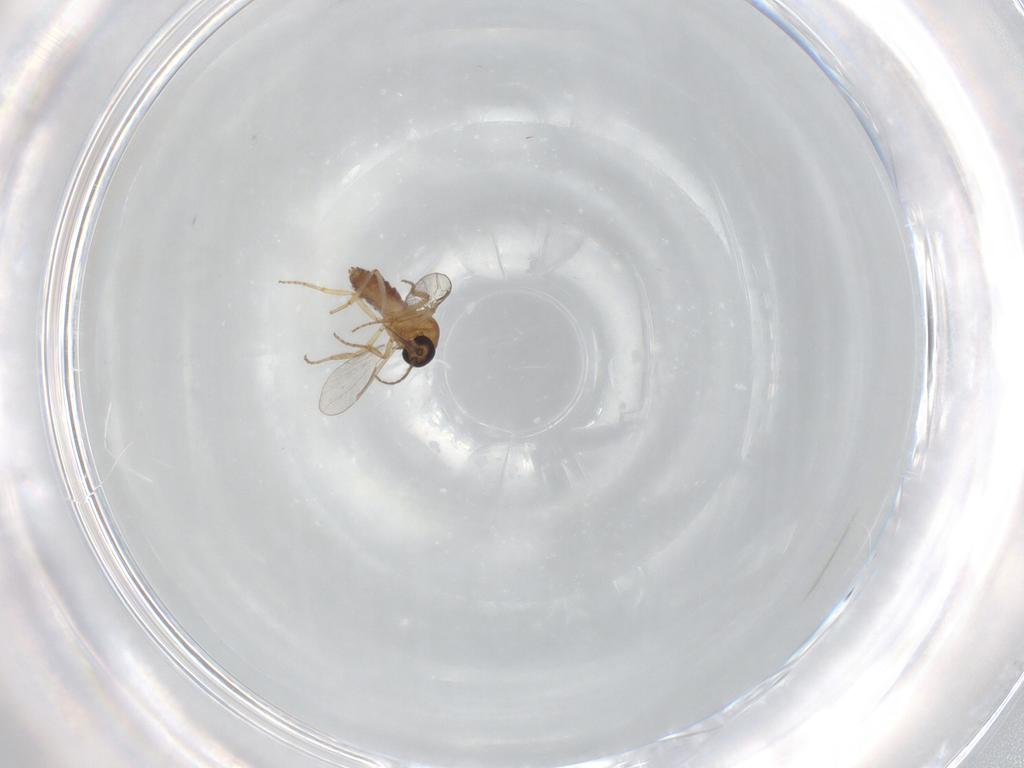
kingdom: Animalia
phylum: Arthropoda
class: Insecta
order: Diptera
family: Ceratopogonidae
